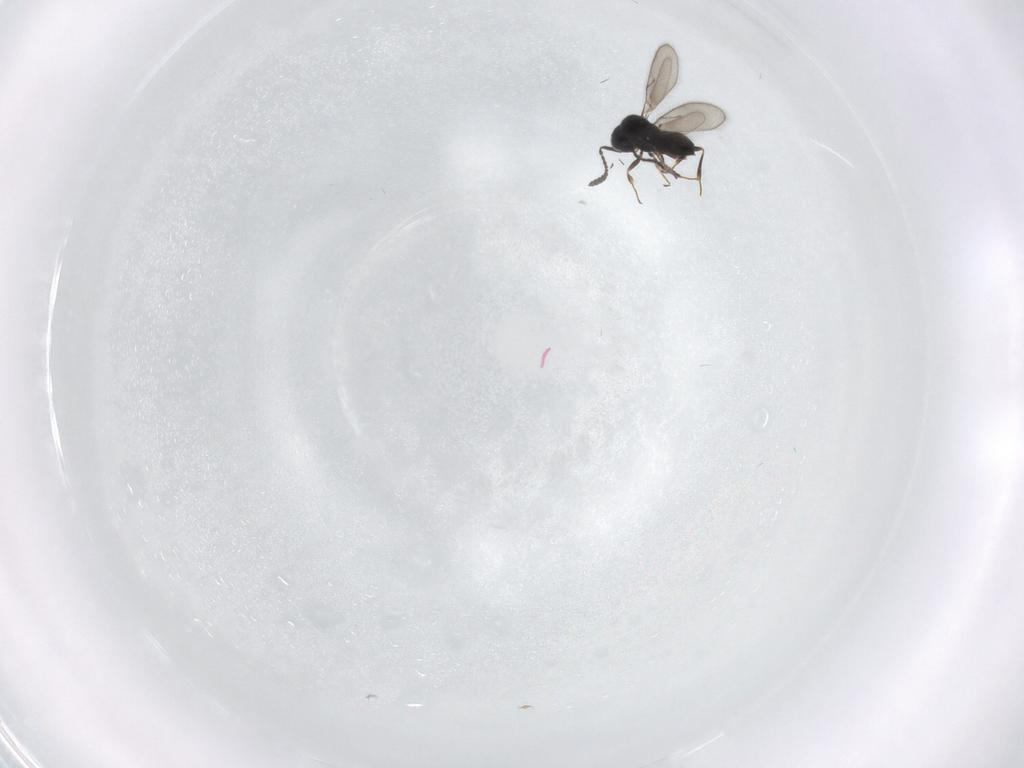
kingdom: Animalia
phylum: Arthropoda
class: Insecta
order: Hymenoptera
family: Scelionidae
